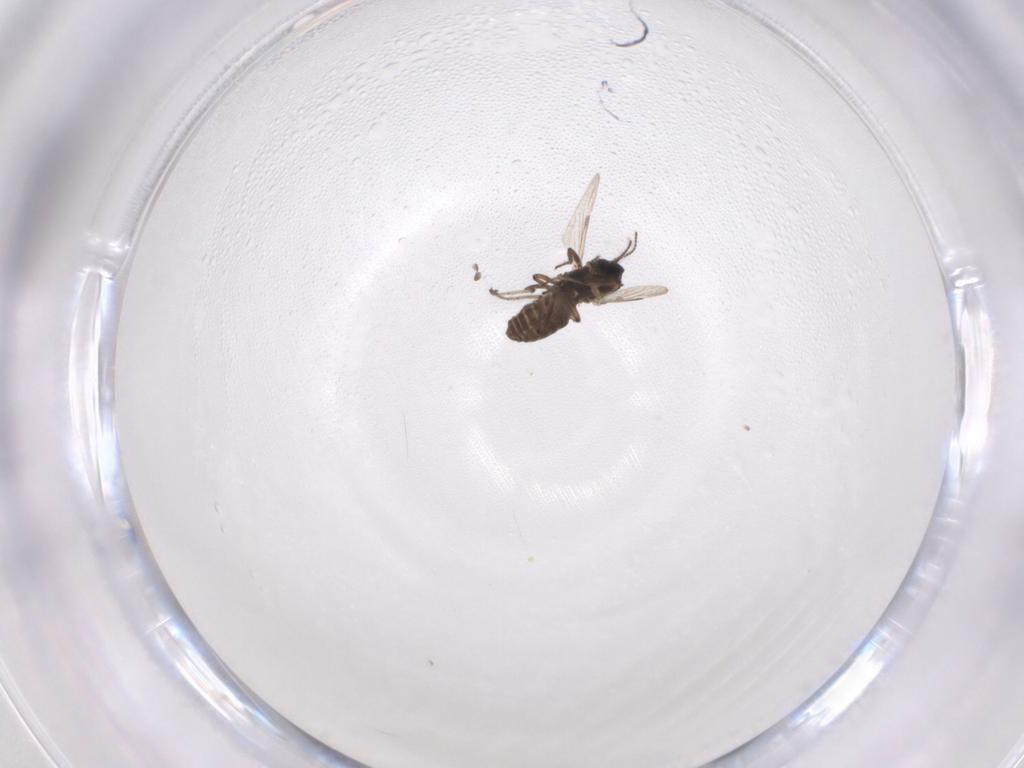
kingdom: Animalia
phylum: Arthropoda
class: Insecta
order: Diptera
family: Ceratopogonidae
